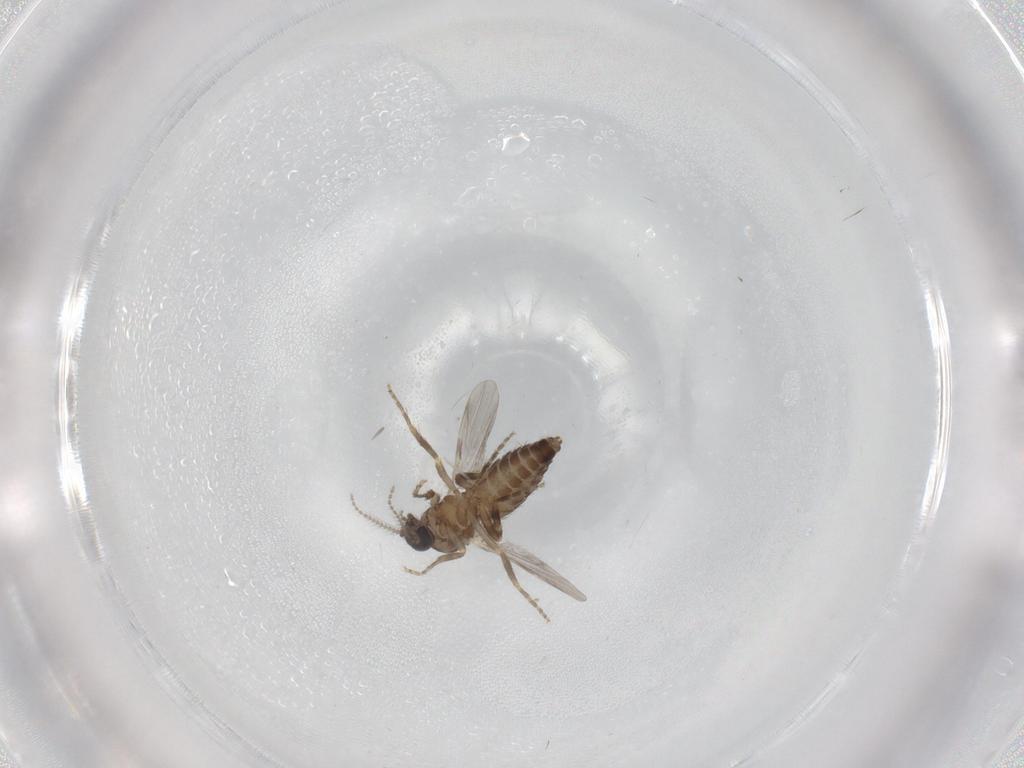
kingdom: Animalia
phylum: Arthropoda
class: Insecta
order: Diptera
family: Ceratopogonidae
